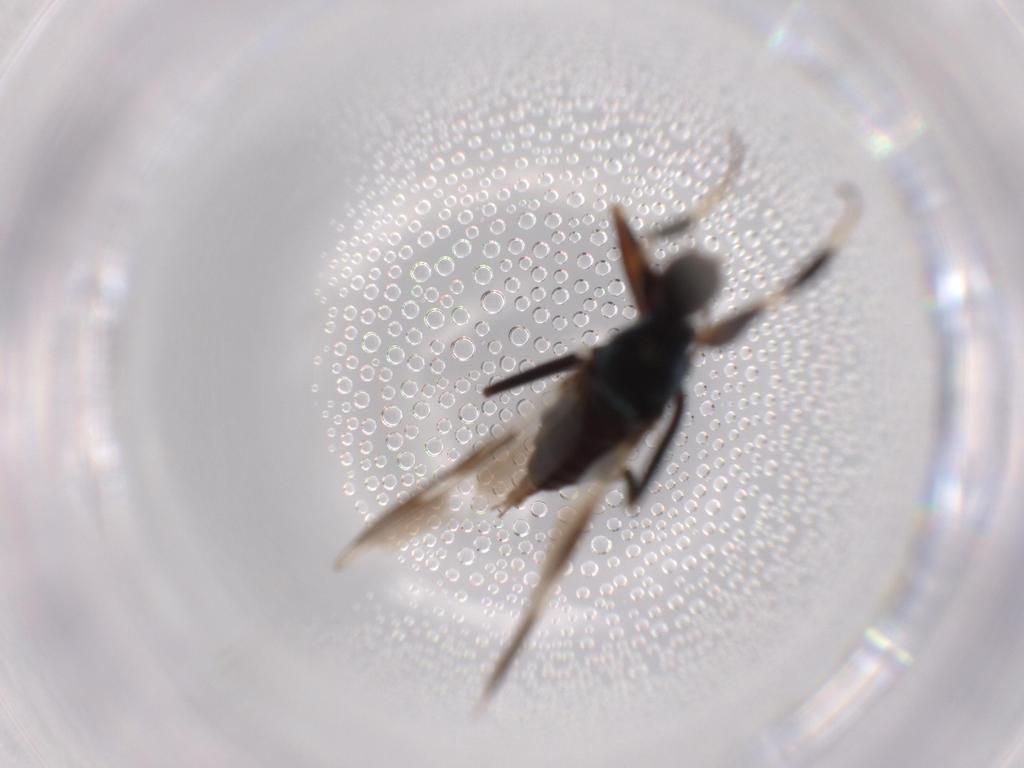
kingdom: Animalia
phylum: Arthropoda
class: Insecta
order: Diptera
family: Hybotidae
